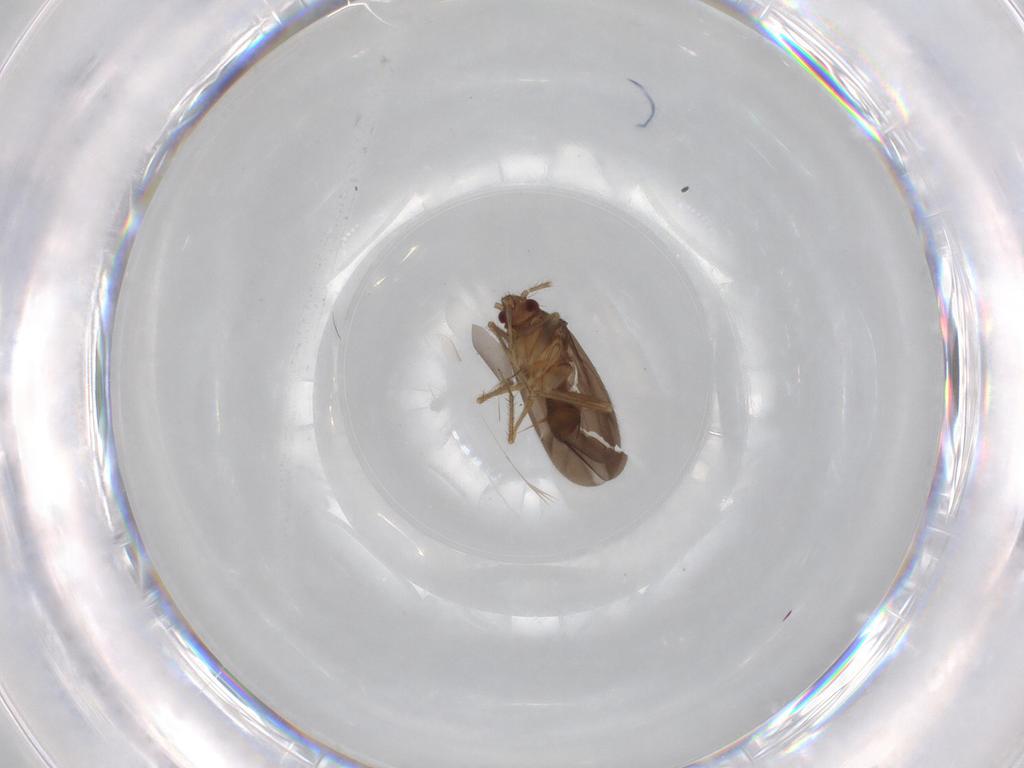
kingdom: Animalia
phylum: Arthropoda
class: Insecta
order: Hemiptera
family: Ceratocombidae
